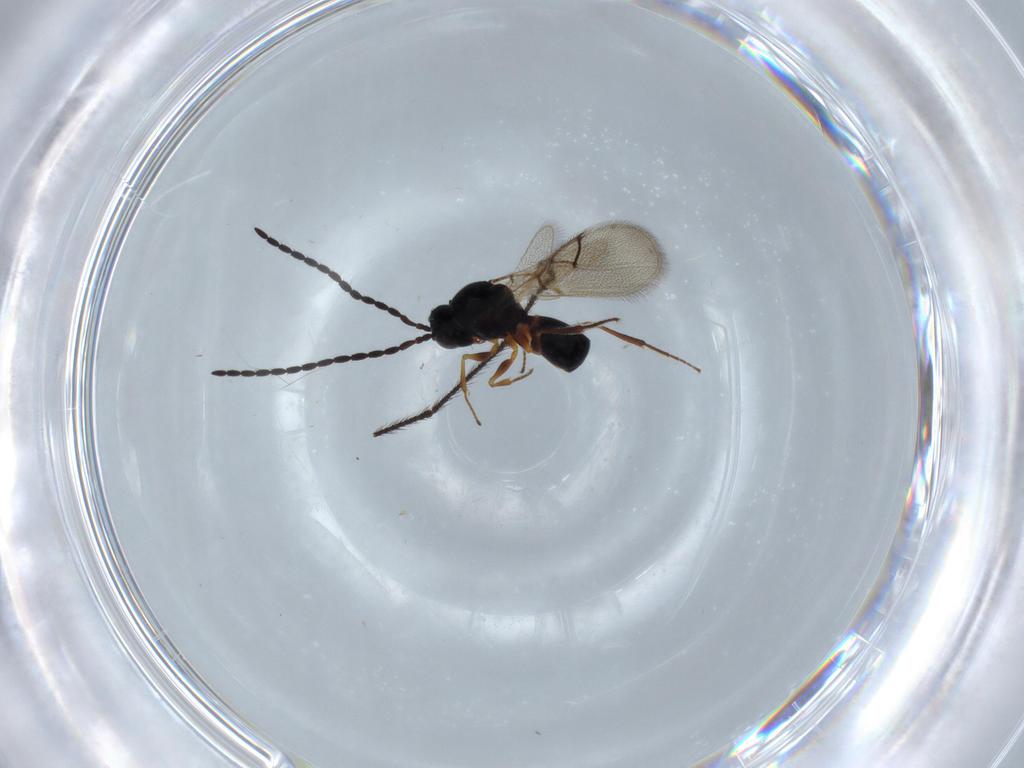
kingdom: Animalia
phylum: Arthropoda
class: Insecta
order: Hymenoptera
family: Figitidae
